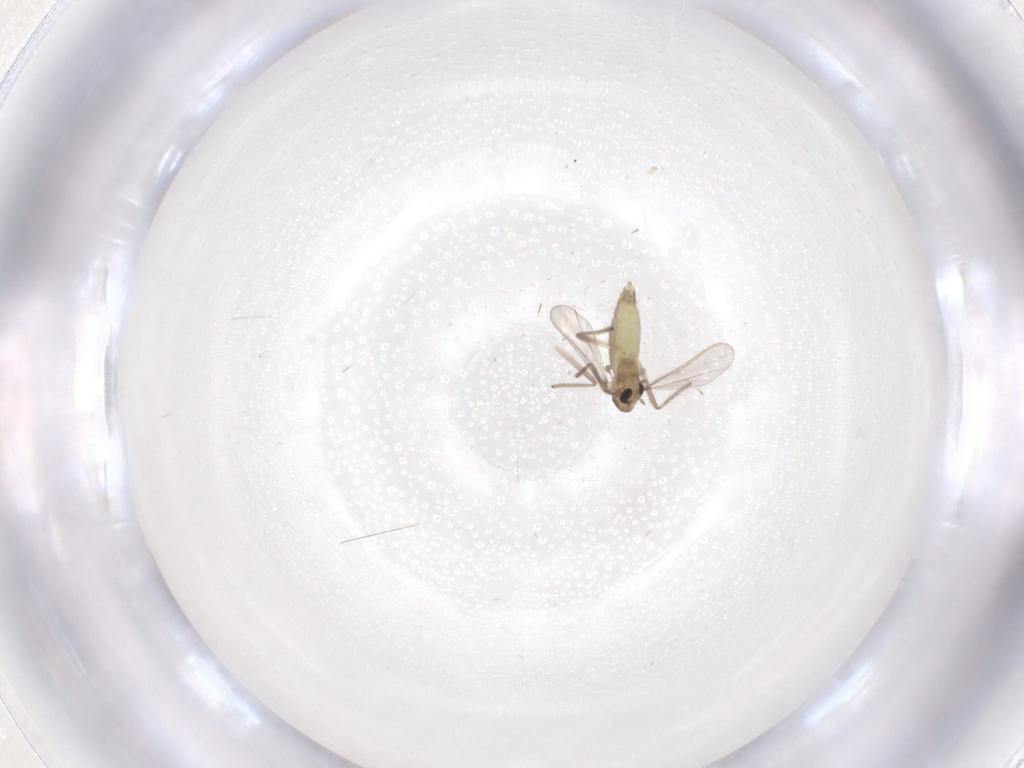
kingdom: Animalia
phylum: Arthropoda
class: Insecta
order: Diptera
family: Chironomidae
